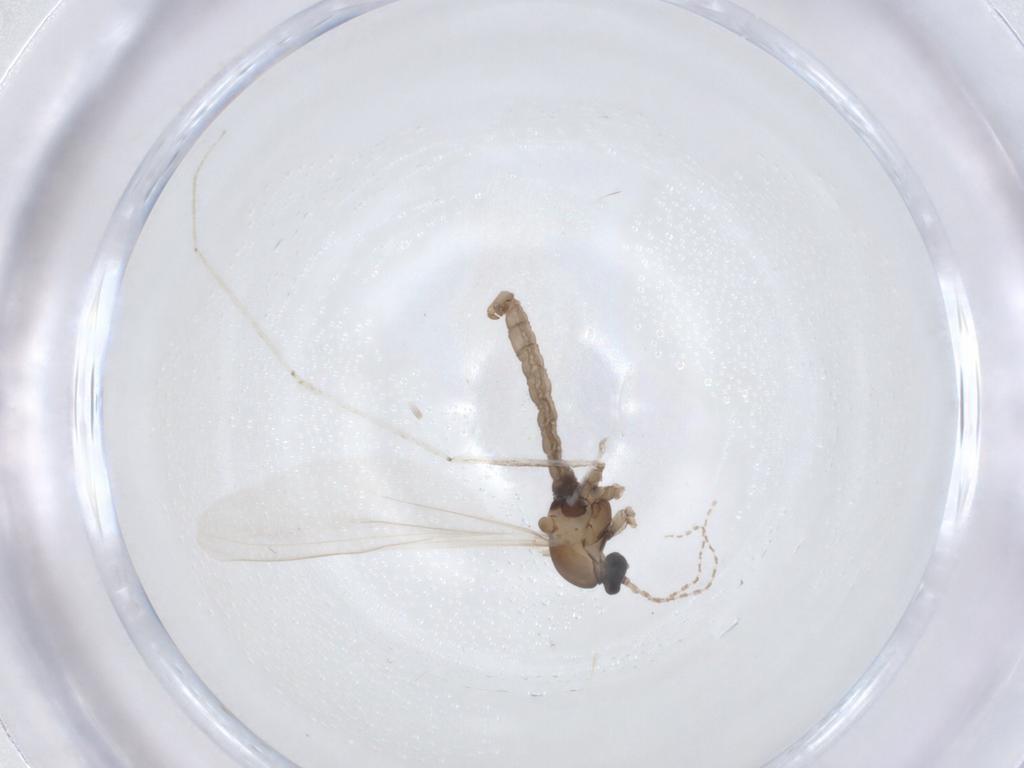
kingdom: Animalia
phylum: Arthropoda
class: Insecta
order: Diptera
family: Cecidomyiidae
